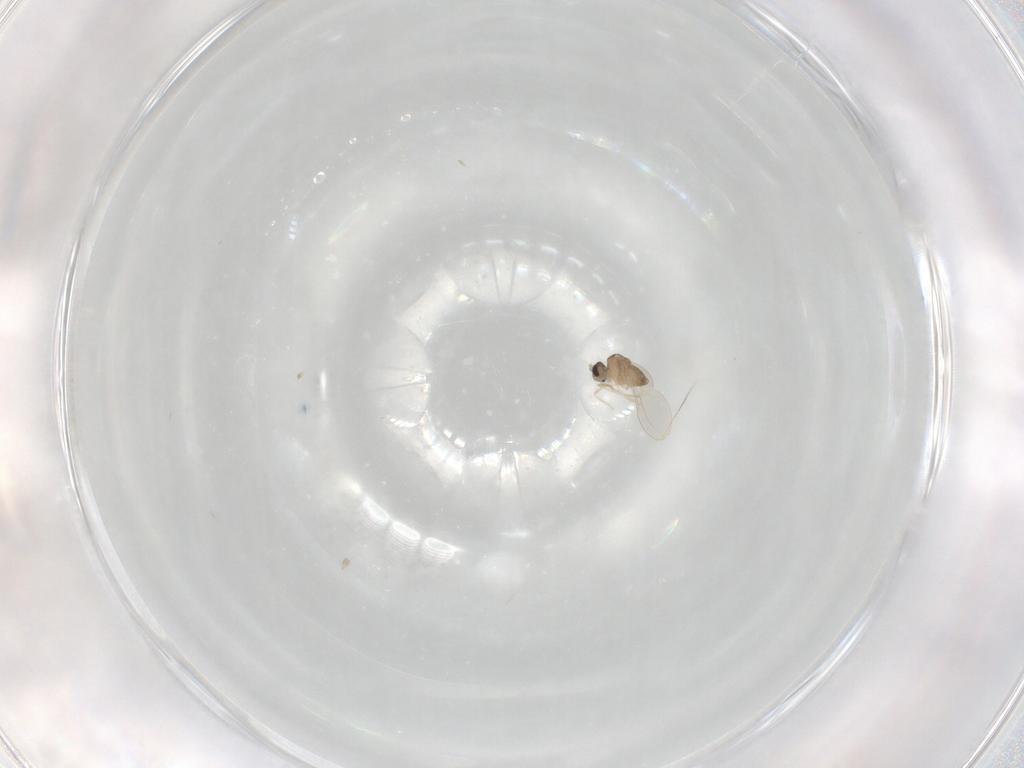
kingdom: Animalia
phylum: Arthropoda
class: Insecta
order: Diptera
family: Cecidomyiidae
